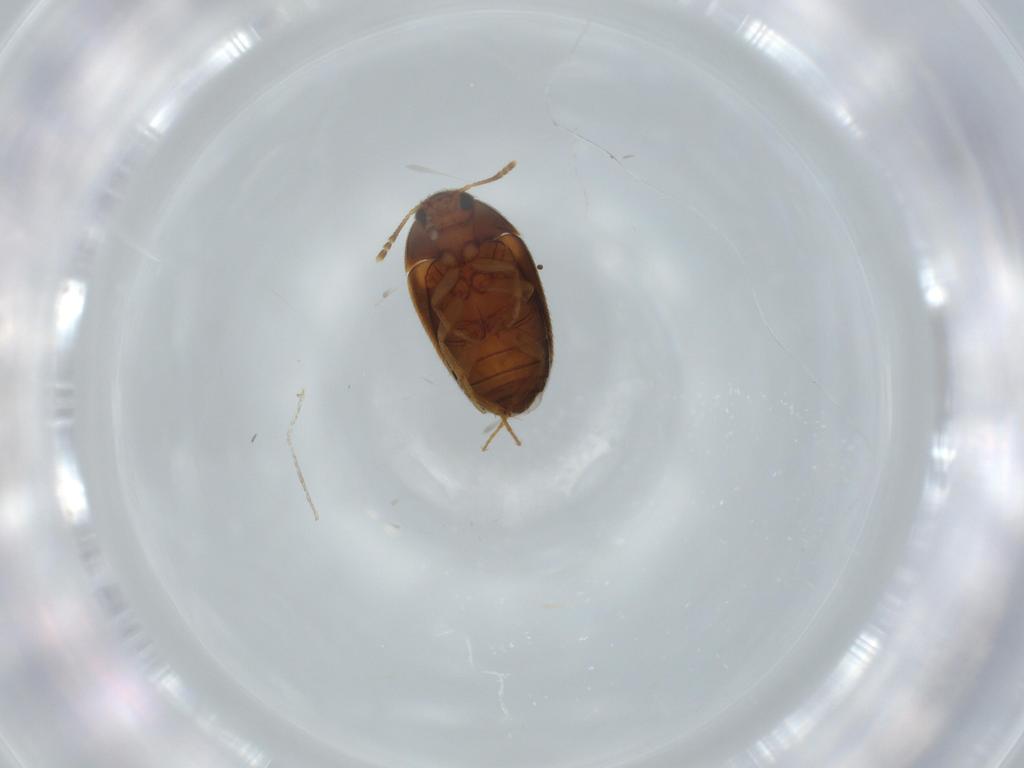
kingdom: Animalia
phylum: Arthropoda
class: Insecta
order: Coleoptera
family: Mycetophagidae
